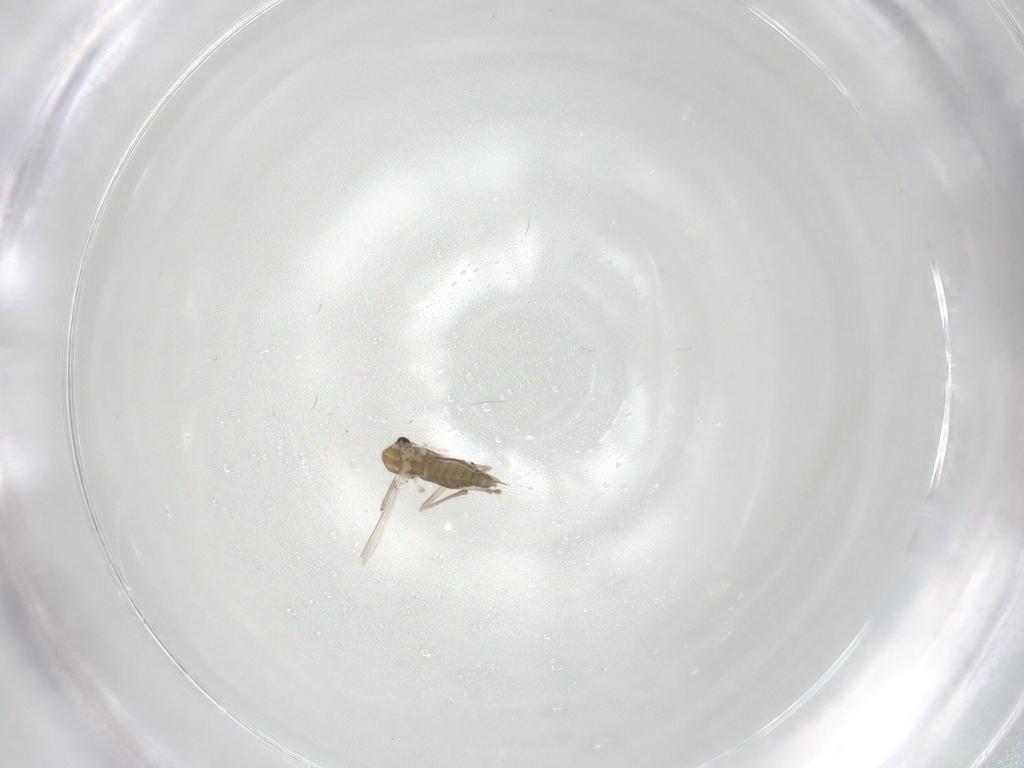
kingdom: Animalia
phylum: Arthropoda
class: Insecta
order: Diptera
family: Chironomidae
